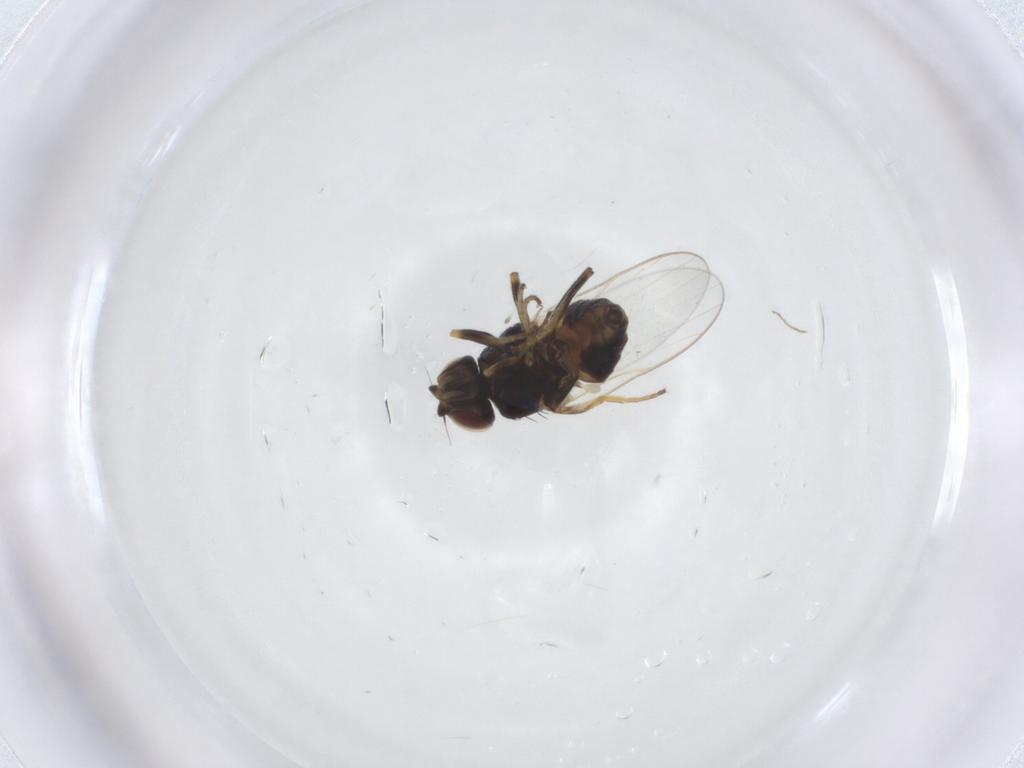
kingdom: Animalia
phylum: Arthropoda
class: Insecta
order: Diptera
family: Chloropidae
